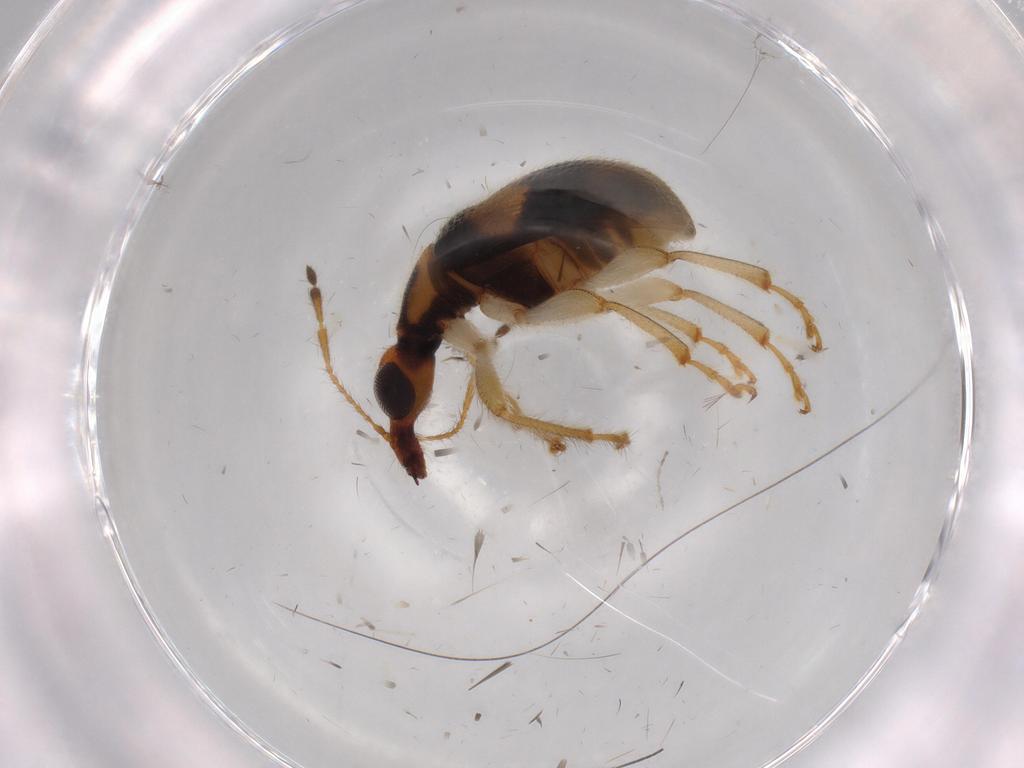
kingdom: Animalia
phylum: Arthropoda
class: Insecta
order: Coleoptera
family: Attelabidae
